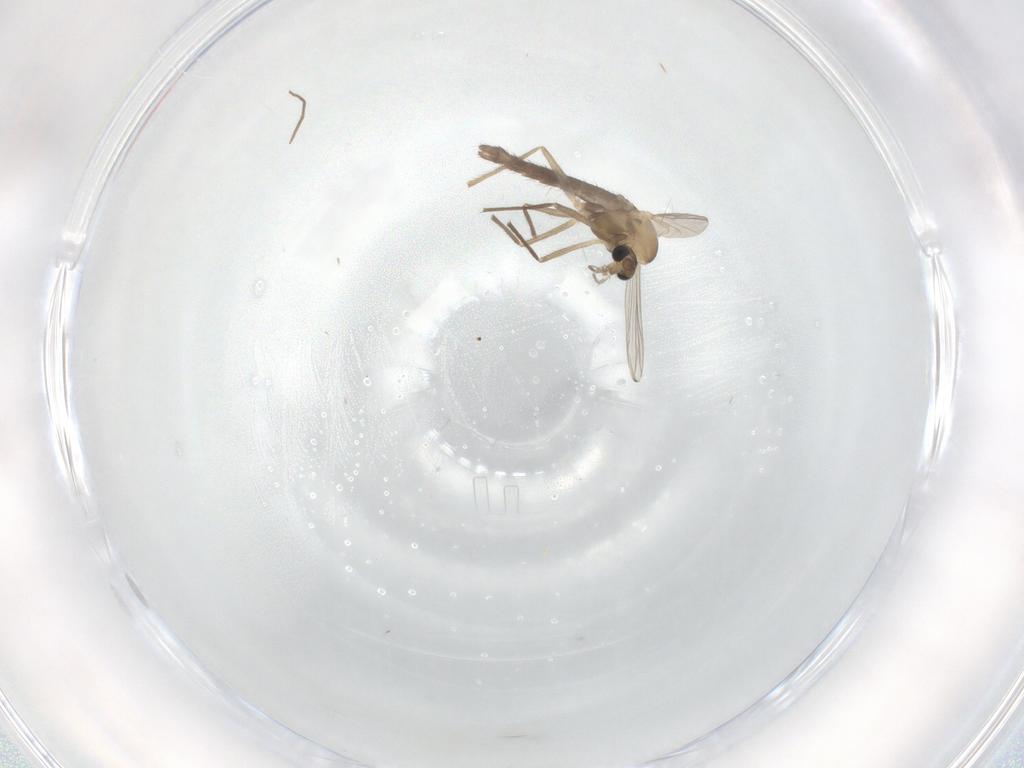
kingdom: Animalia
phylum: Arthropoda
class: Insecta
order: Diptera
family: Chironomidae
